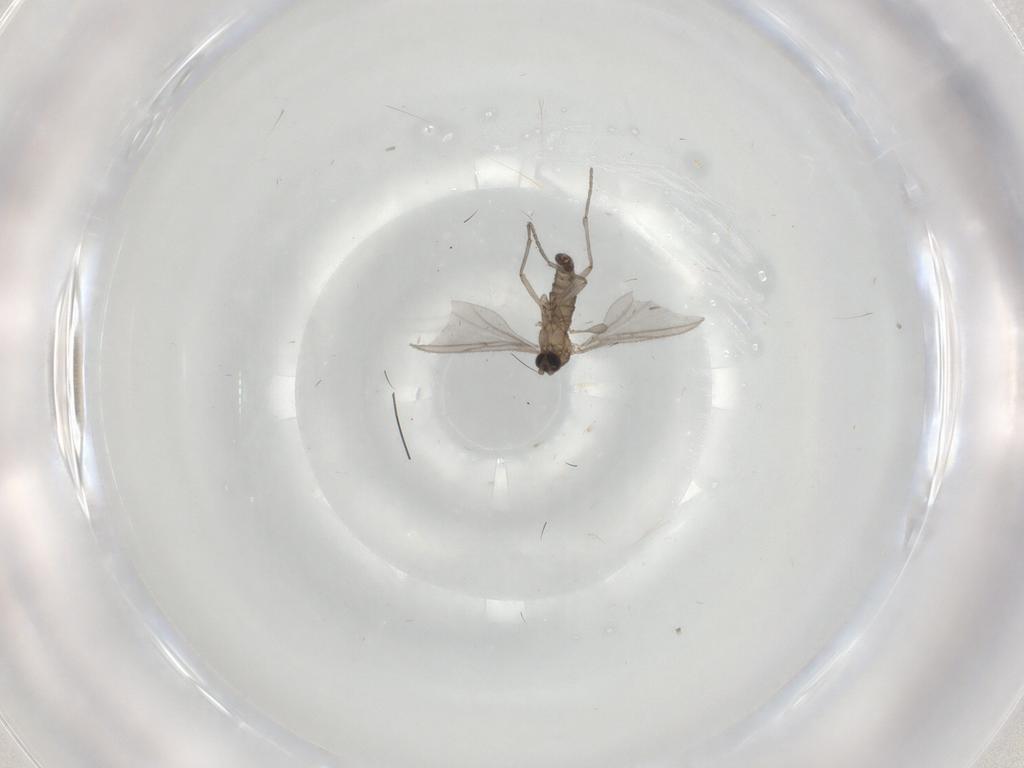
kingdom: Animalia
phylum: Arthropoda
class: Insecta
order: Diptera
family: Sciaridae
